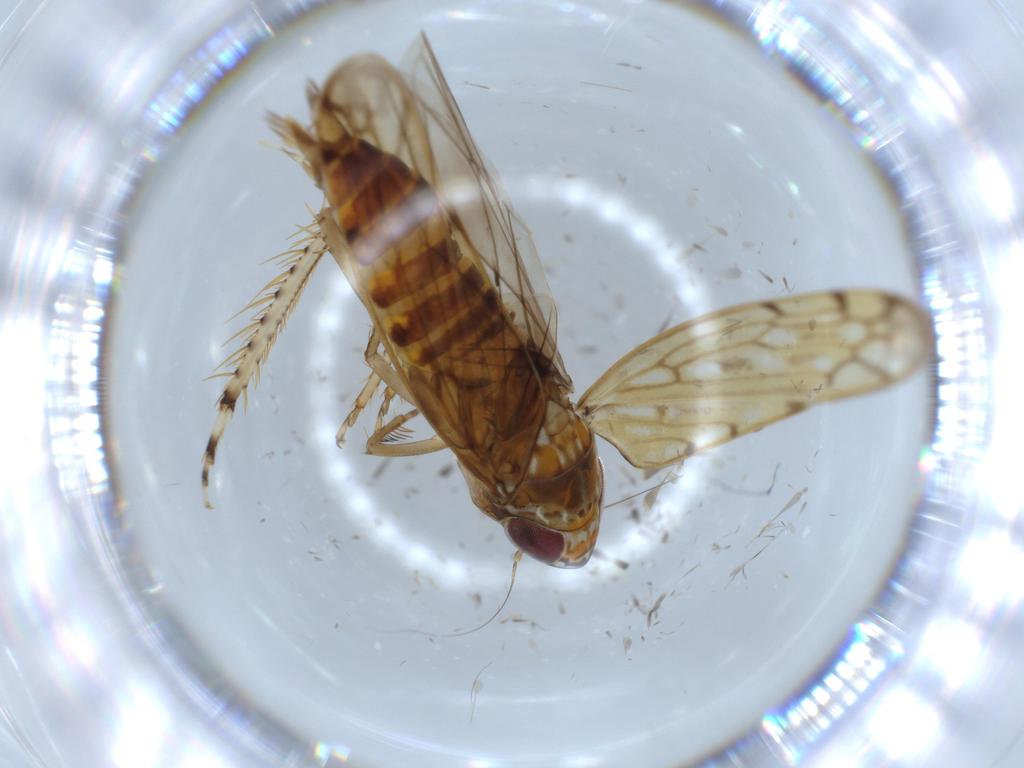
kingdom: Animalia
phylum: Arthropoda
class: Insecta
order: Hemiptera
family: Cicadellidae
